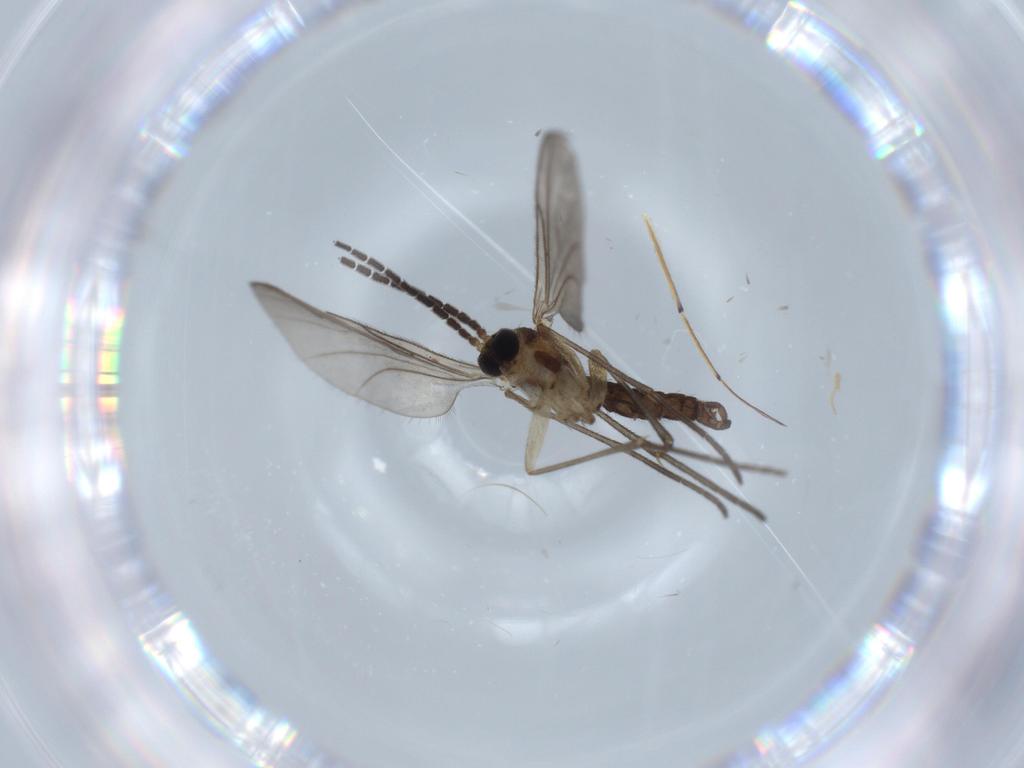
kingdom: Animalia
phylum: Arthropoda
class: Insecta
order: Diptera
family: Sciaridae
